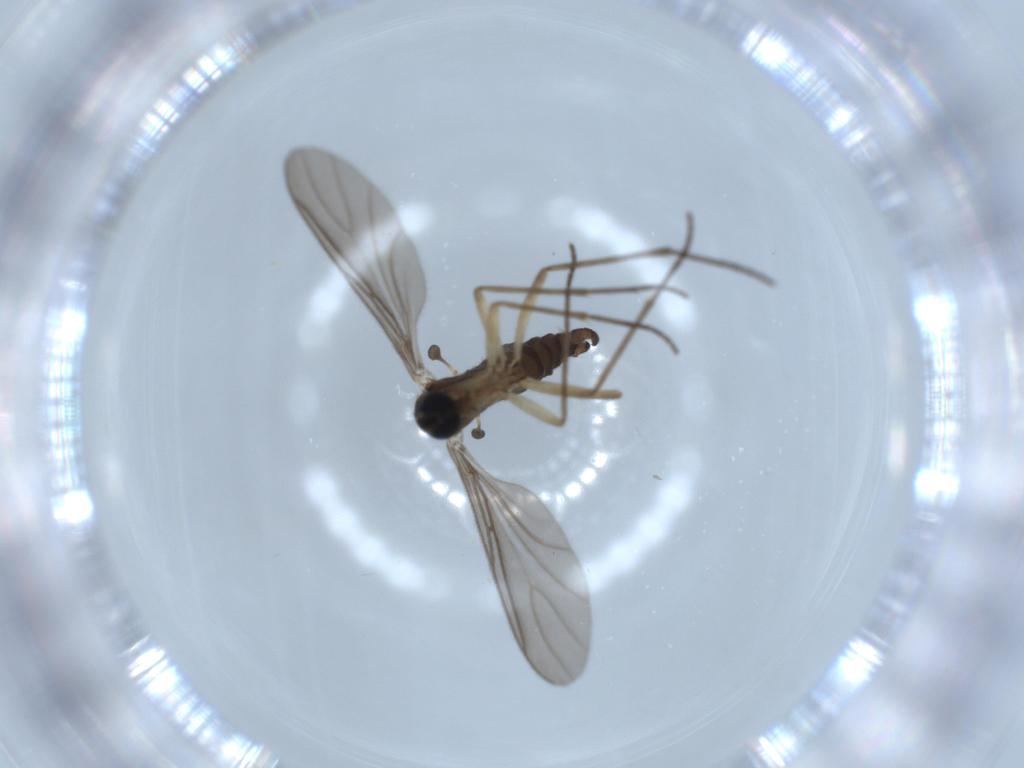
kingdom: Animalia
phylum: Arthropoda
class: Insecta
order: Diptera
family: Sciaridae
